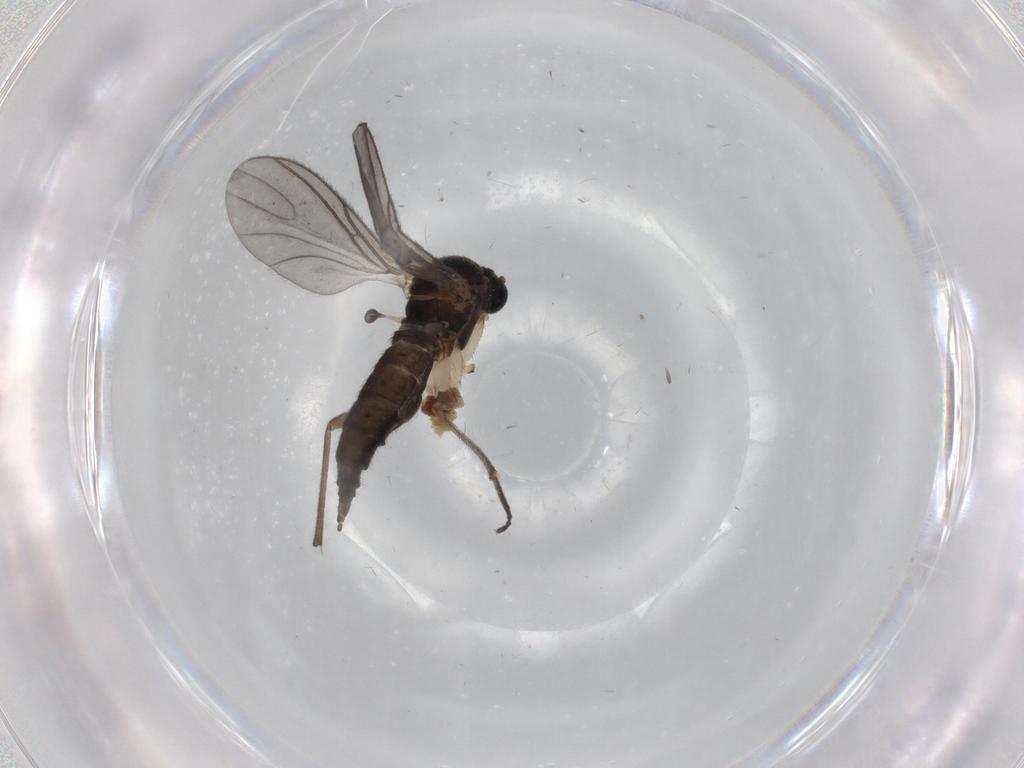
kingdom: Animalia
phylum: Arthropoda
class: Insecta
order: Diptera
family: Sciaridae
